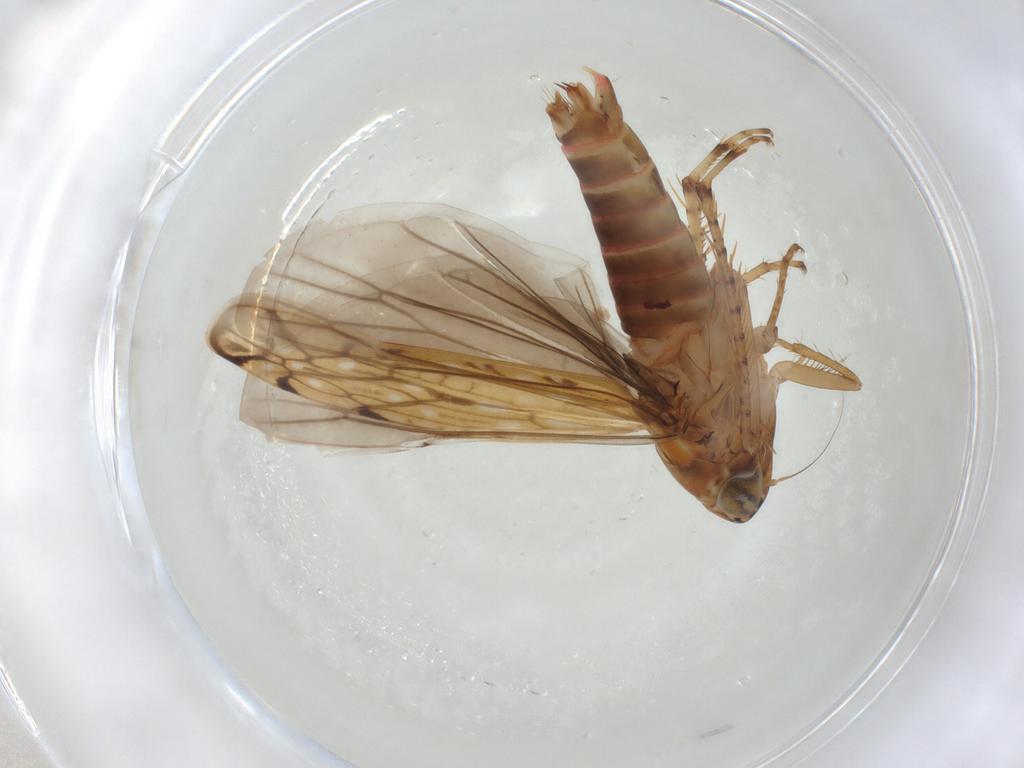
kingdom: Animalia
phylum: Arthropoda
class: Insecta
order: Hemiptera
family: Cicadellidae
